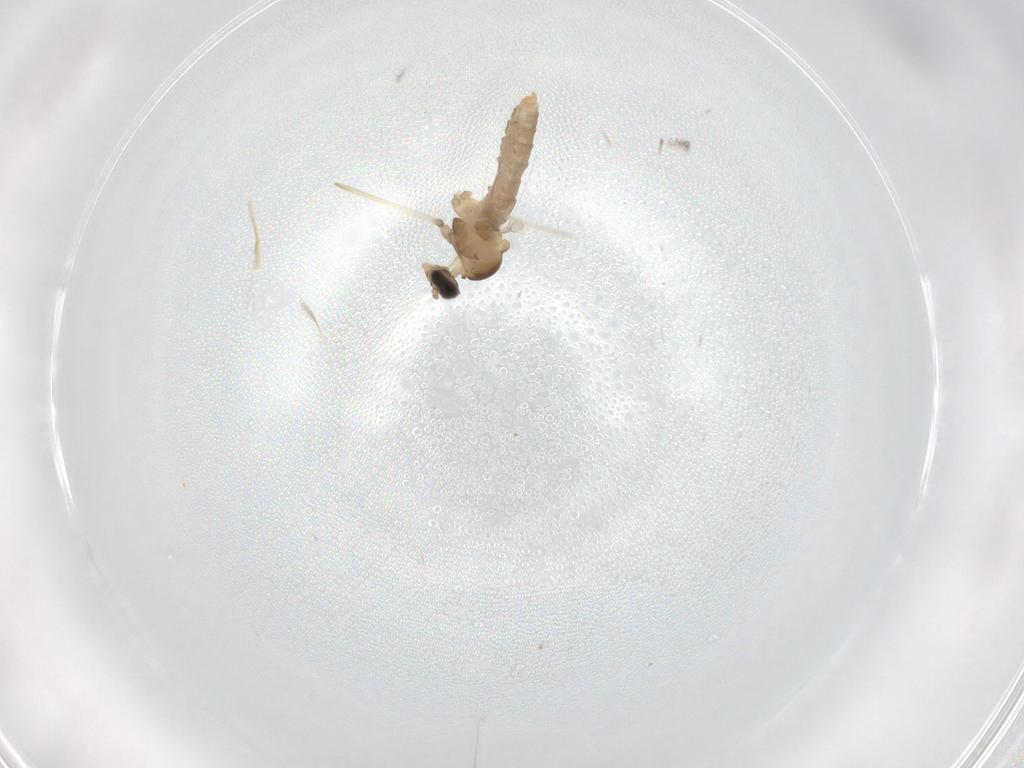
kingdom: Animalia
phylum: Arthropoda
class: Insecta
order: Diptera
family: Cecidomyiidae
